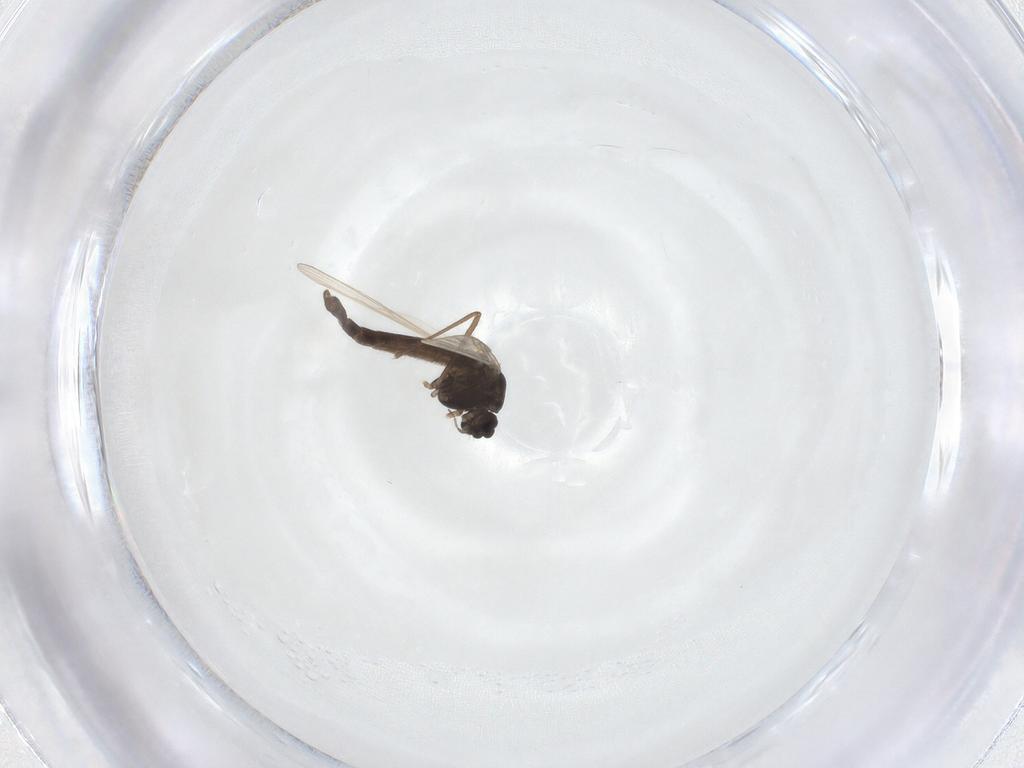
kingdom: Animalia
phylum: Arthropoda
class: Insecta
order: Diptera
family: Chironomidae
